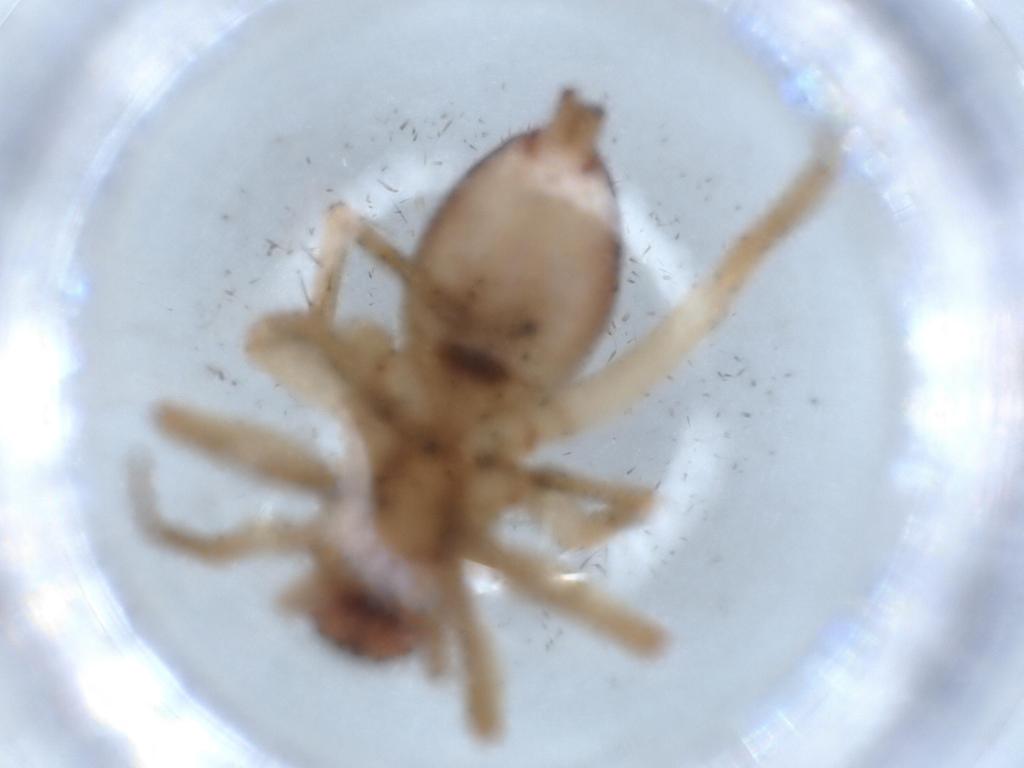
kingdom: Animalia
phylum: Arthropoda
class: Arachnida
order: Araneae
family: Clubionidae
